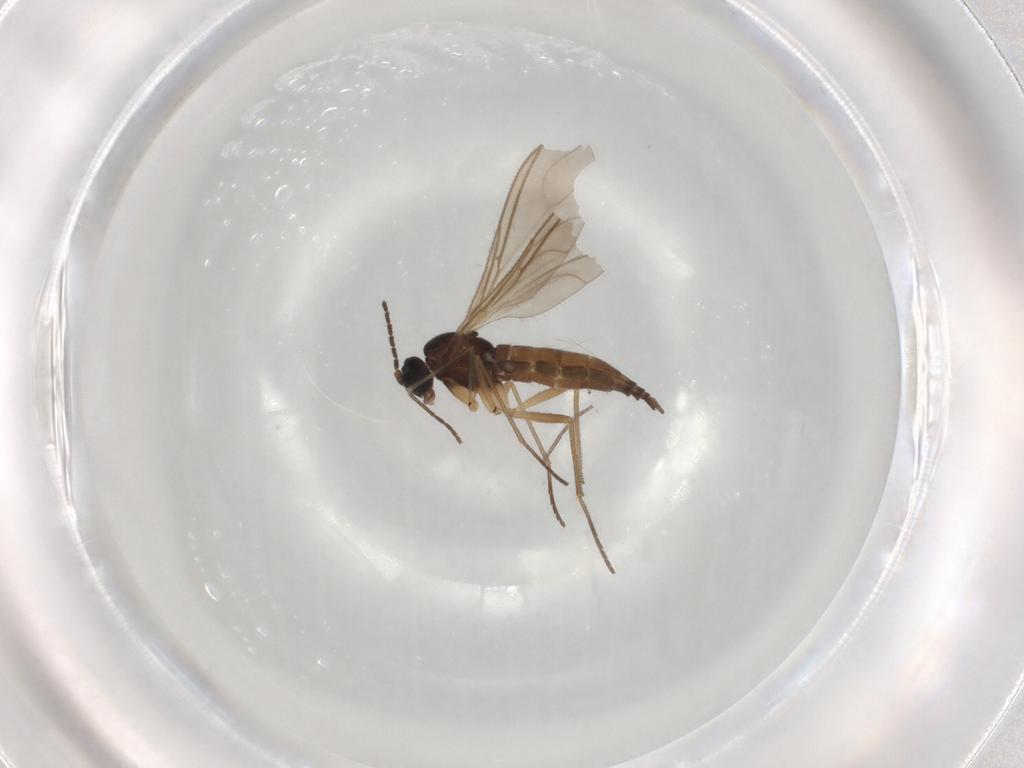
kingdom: Animalia
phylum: Arthropoda
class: Insecta
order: Diptera
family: Sciaridae
